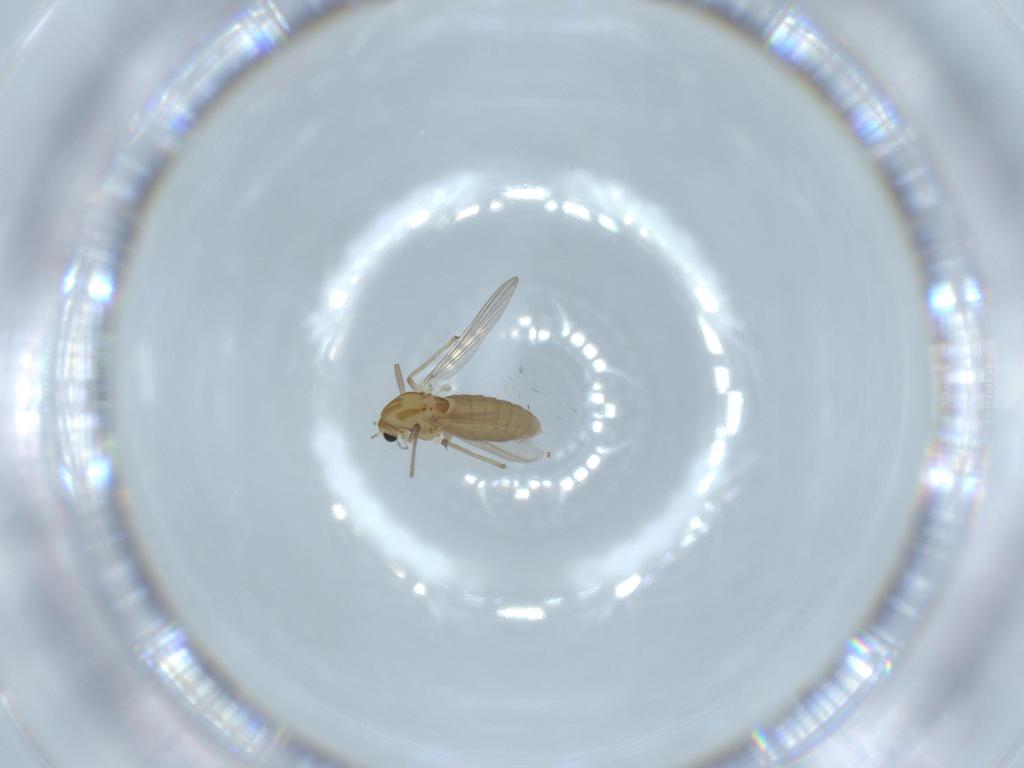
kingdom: Animalia
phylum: Arthropoda
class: Insecta
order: Diptera
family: Chironomidae
